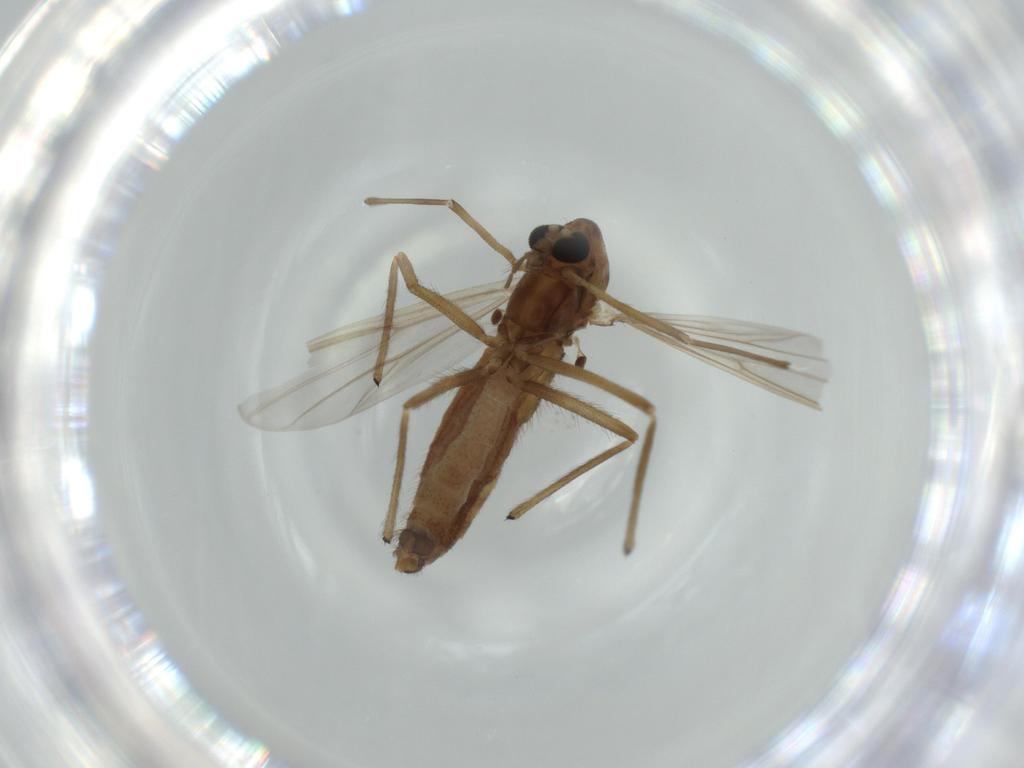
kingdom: Animalia
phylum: Arthropoda
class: Insecta
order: Diptera
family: Chironomidae
